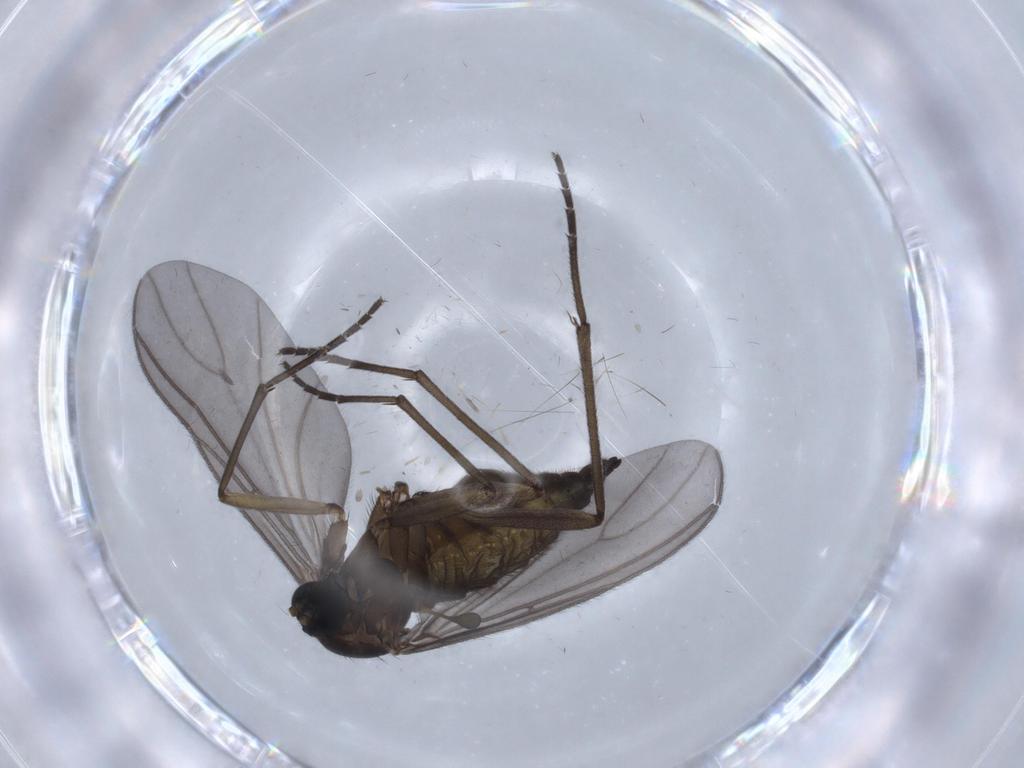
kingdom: Animalia
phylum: Arthropoda
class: Insecta
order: Diptera
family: Sciaridae
